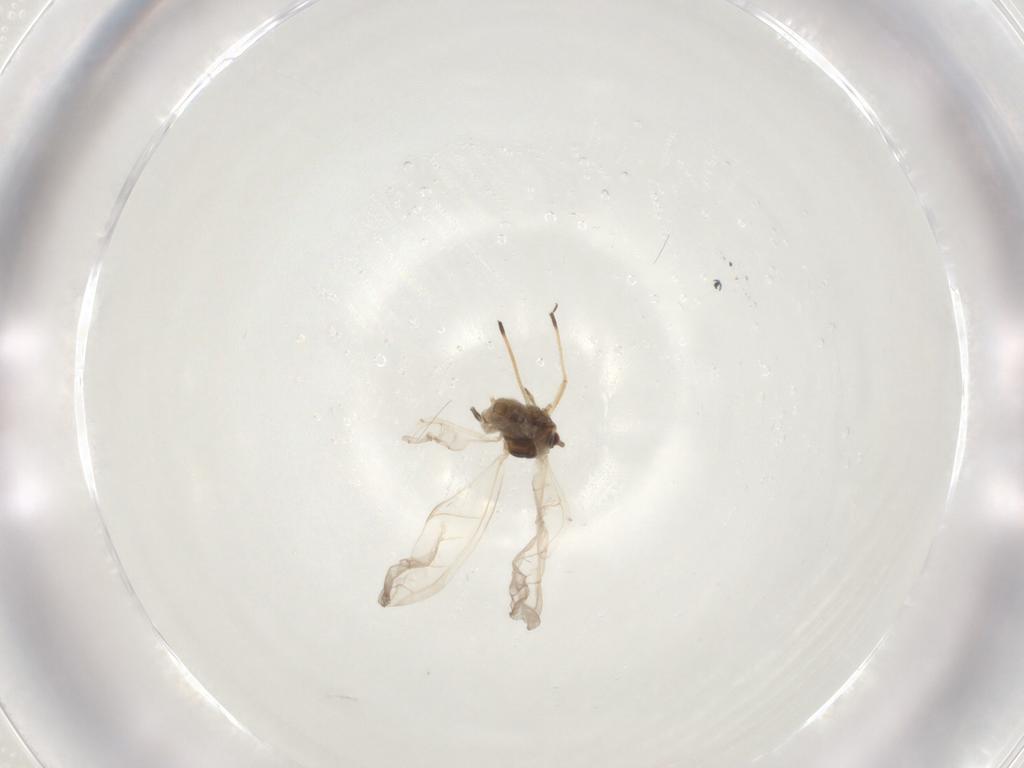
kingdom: Animalia
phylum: Arthropoda
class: Insecta
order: Hemiptera
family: Aphididae
